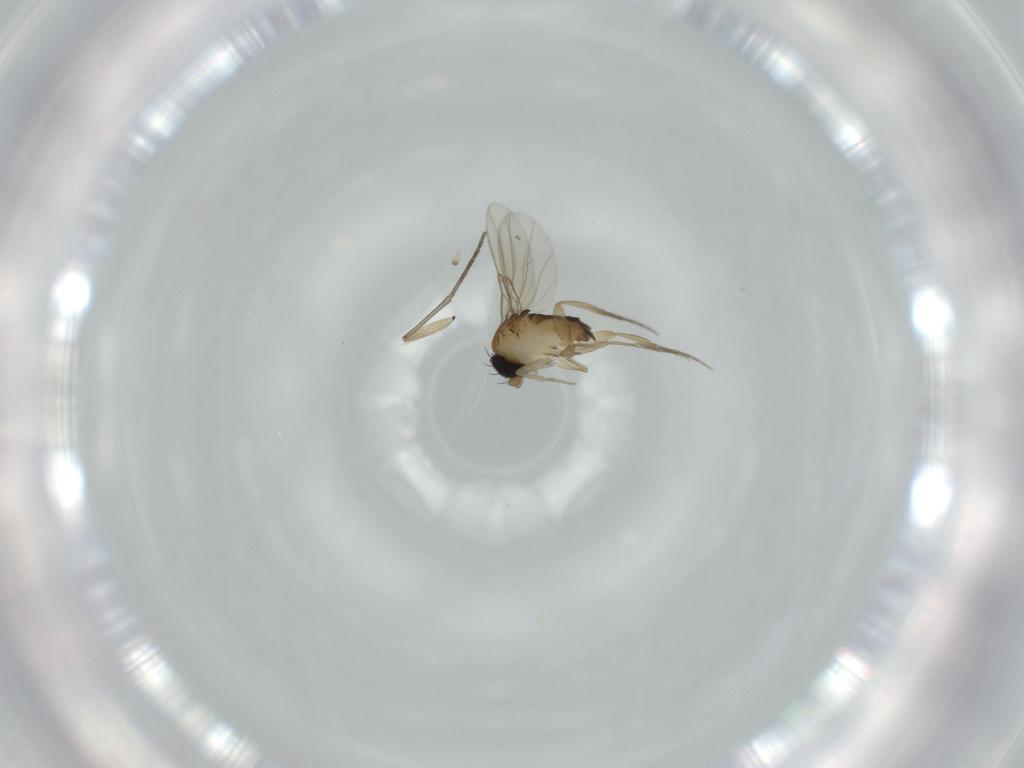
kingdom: Animalia
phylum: Arthropoda
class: Insecta
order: Diptera
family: Phoridae
